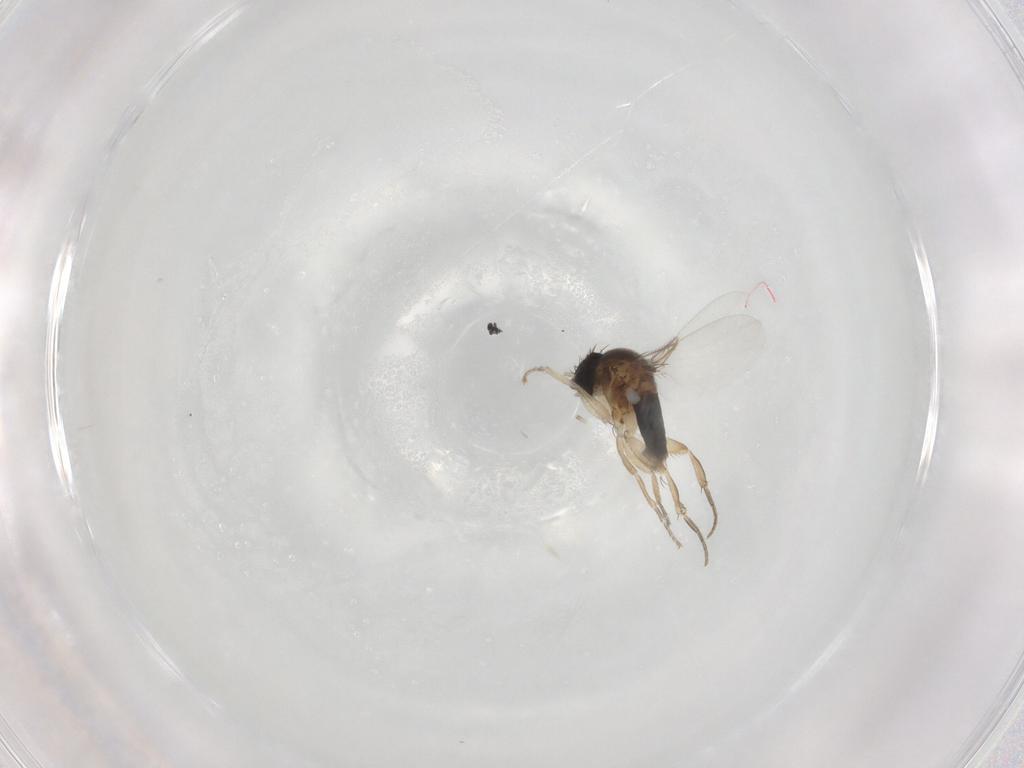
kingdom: Animalia
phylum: Arthropoda
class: Insecta
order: Diptera
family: Phoridae
